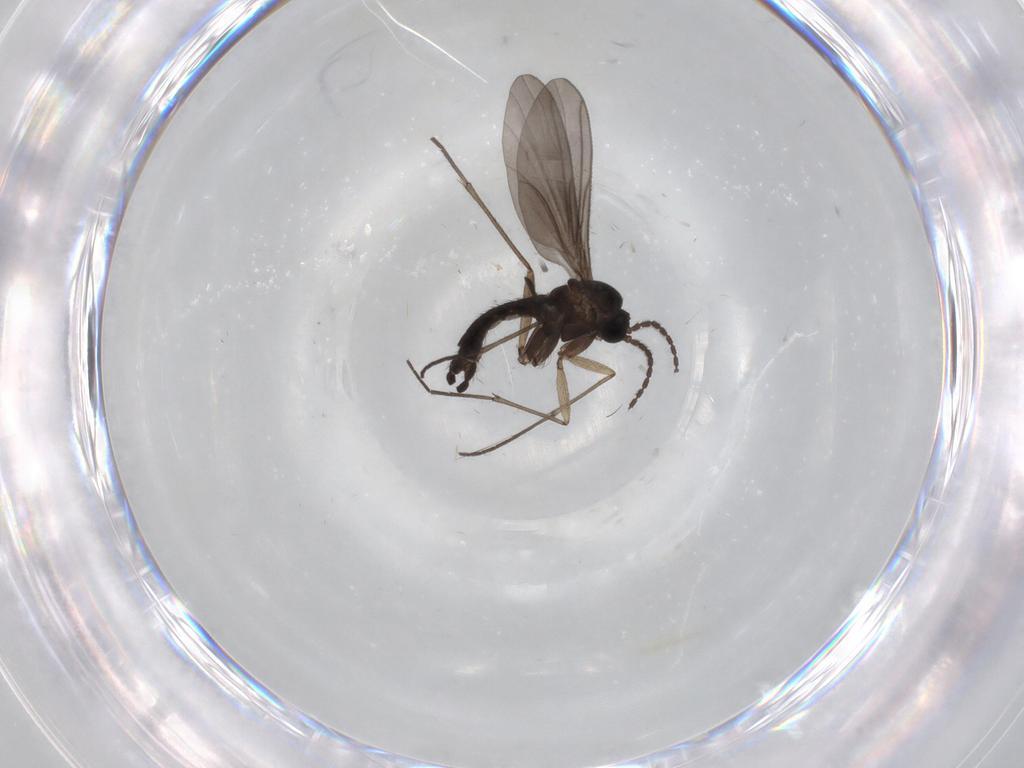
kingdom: Animalia
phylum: Arthropoda
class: Insecta
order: Diptera
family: Sciaridae
